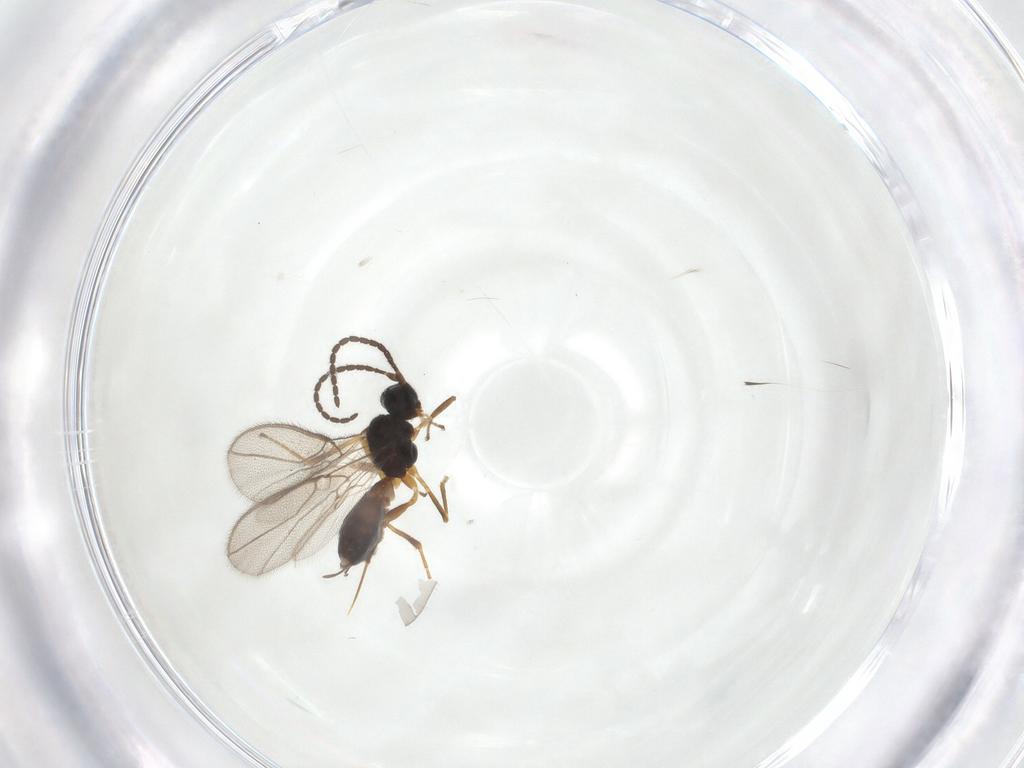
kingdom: Animalia
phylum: Arthropoda
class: Insecta
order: Hymenoptera
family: Braconidae
